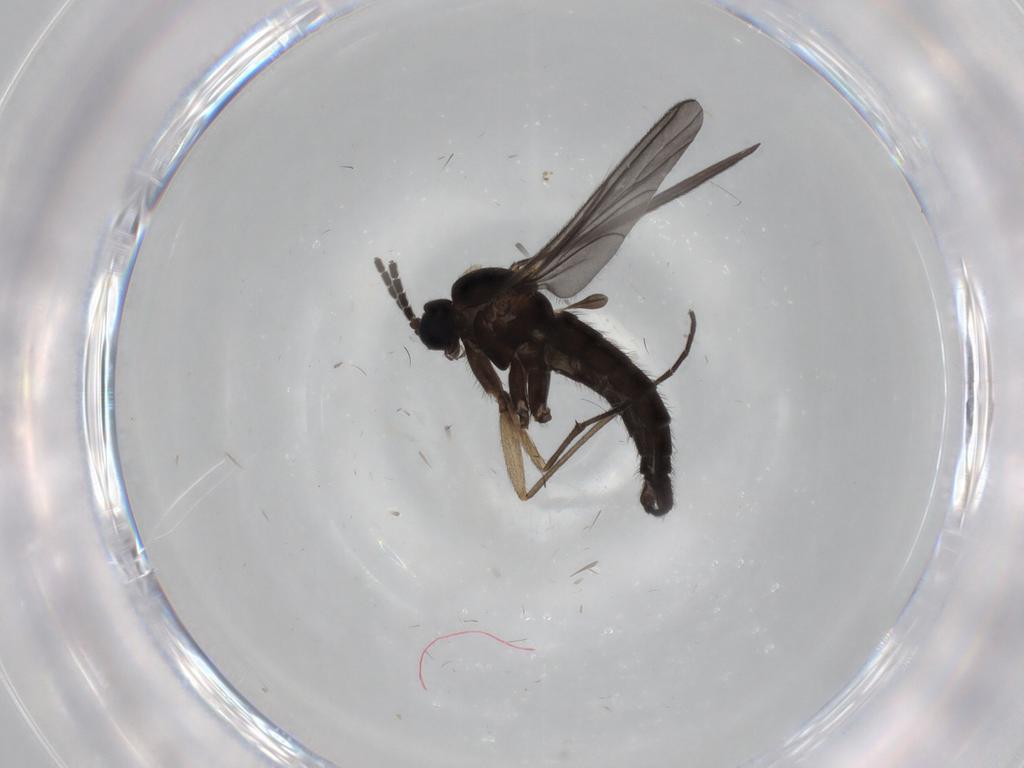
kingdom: Animalia
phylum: Arthropoda
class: Insecta
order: Diptera
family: Sciaridae
